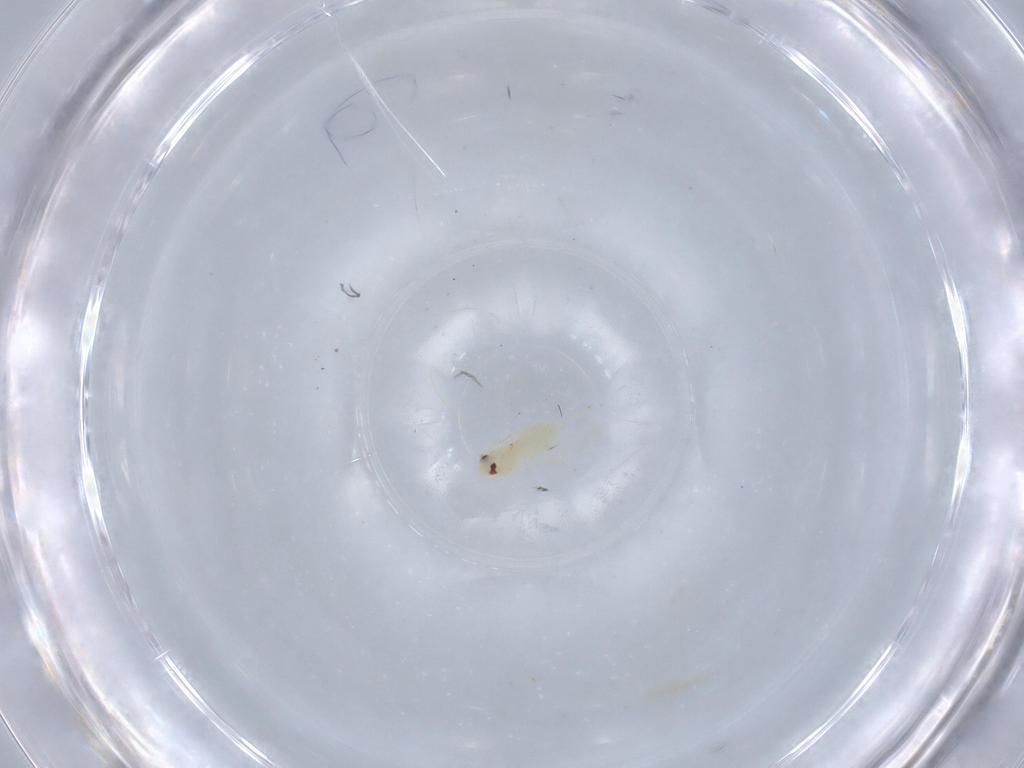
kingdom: Animalia
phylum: Arthropoda
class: Insecta
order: Hemiptera
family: Aleyrodidae
